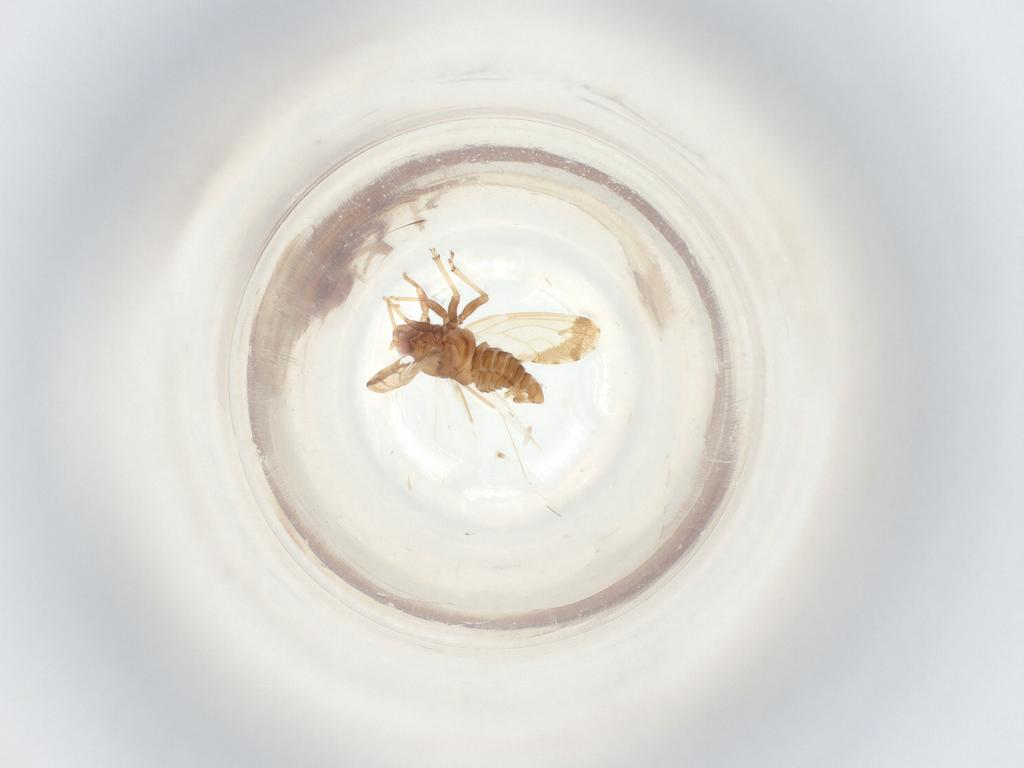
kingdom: Animalia
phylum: Arthropoda
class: Insecta
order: Diptera
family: Sciaridae
